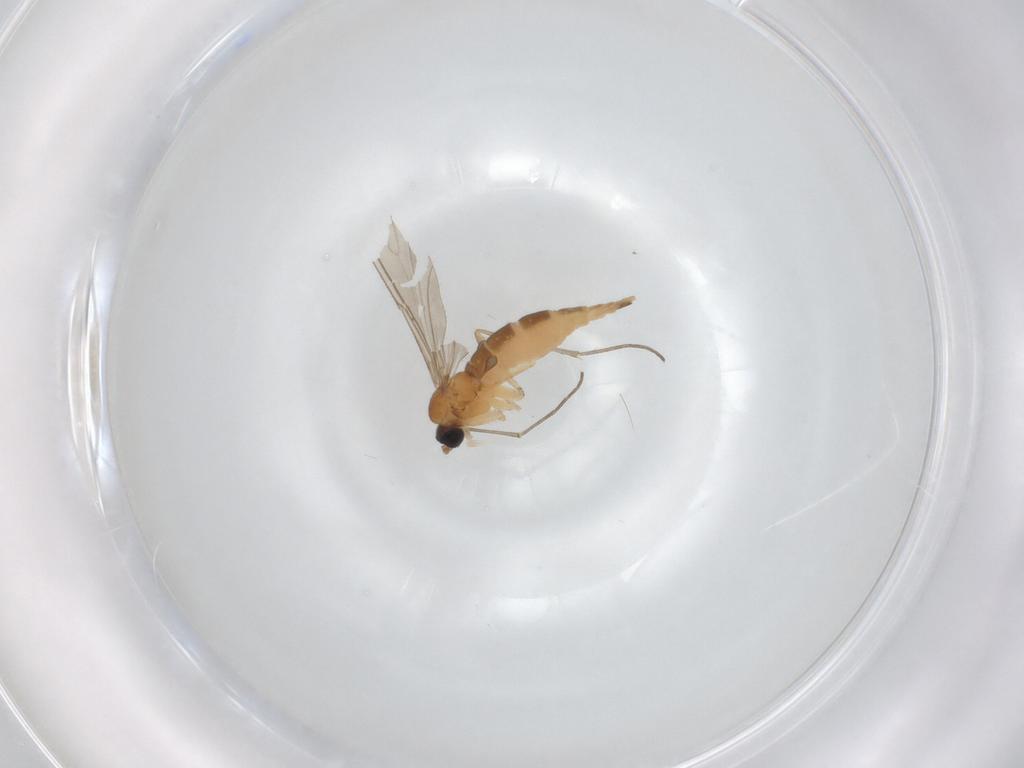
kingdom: Animalia
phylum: Arthropoda
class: Insecta
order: Diptera
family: Sciaridae
